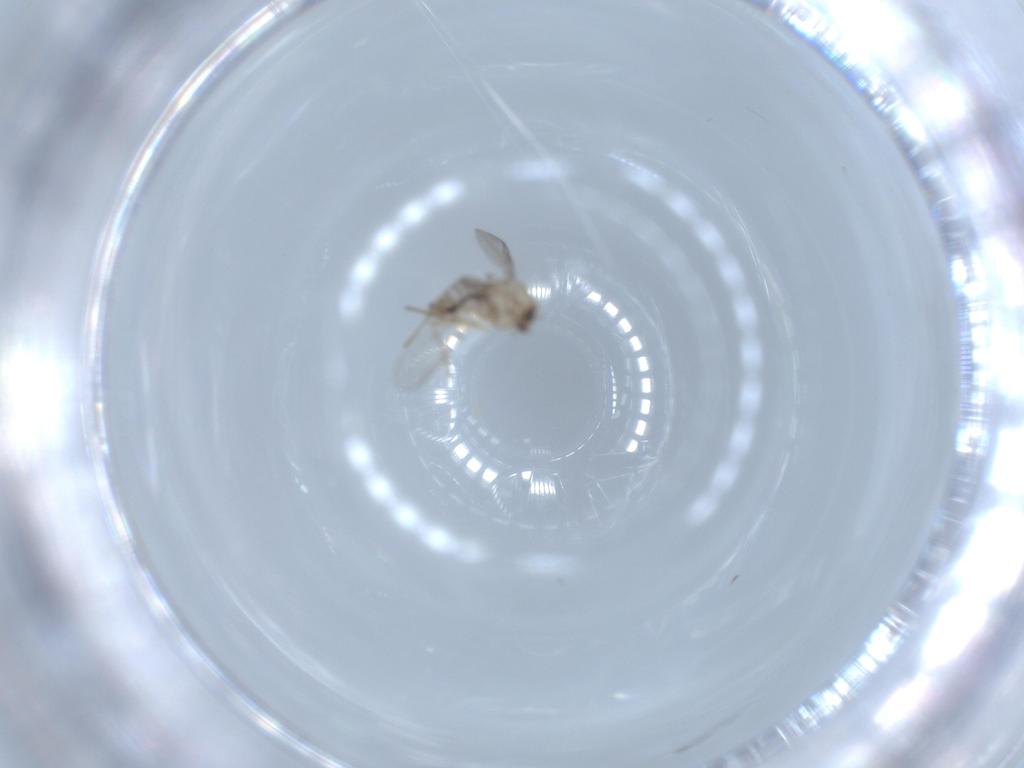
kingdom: Animalia
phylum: Arthropoda
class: Insecta
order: Diptera
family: Chironomidae
